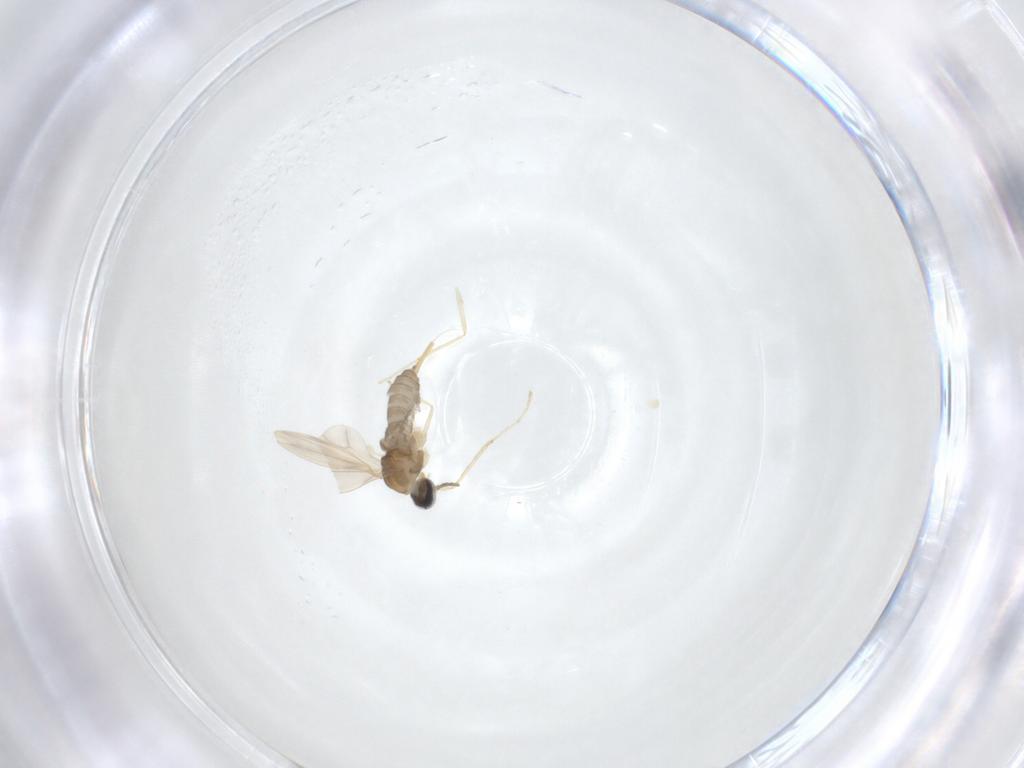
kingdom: Animalia
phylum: Arthropoda
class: Insecta
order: Diptera
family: Cecidomyiidae
